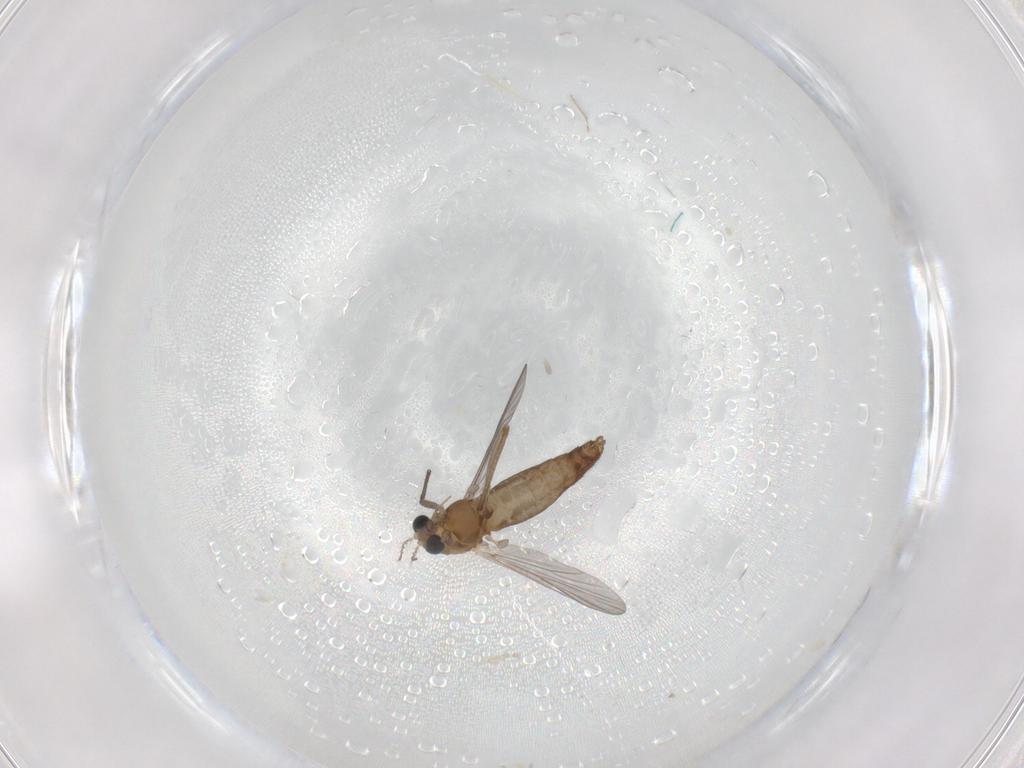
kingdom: Animalia
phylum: Arthropoda
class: Insecta
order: Diptera
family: Chironomidae
